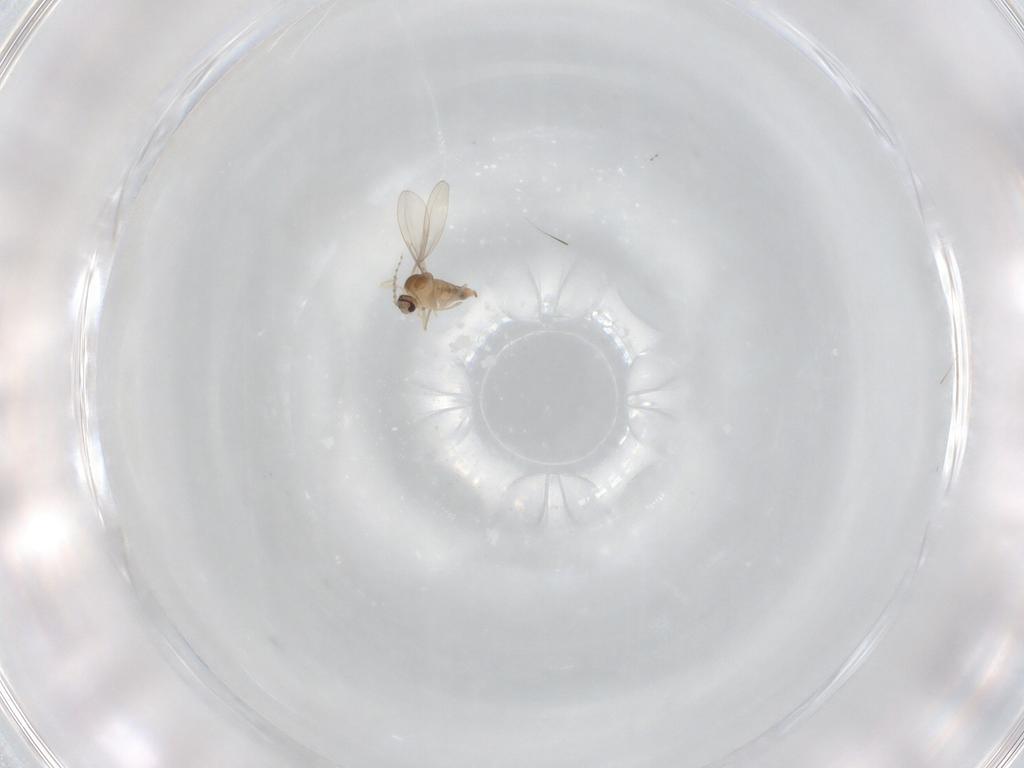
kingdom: Animalia
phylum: Arthropoda
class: Insecta
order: Diptera
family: Cecidomyiidae
